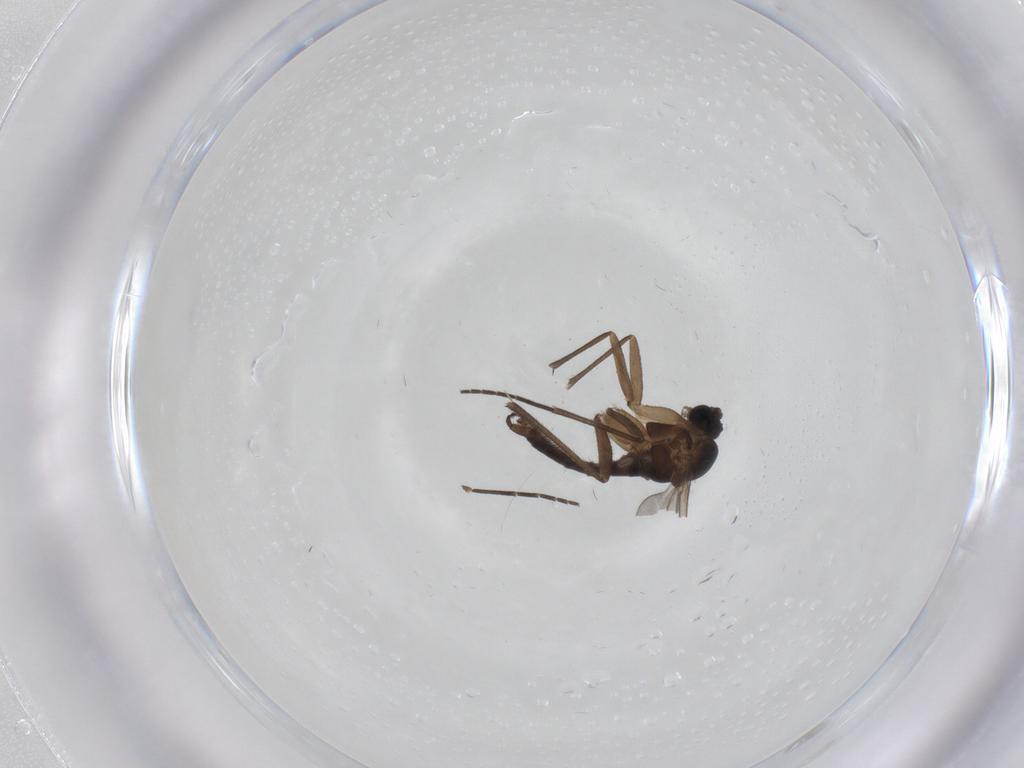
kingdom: Animalia
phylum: Arthropoda
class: Insecta
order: Diptera
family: Sciaridae
